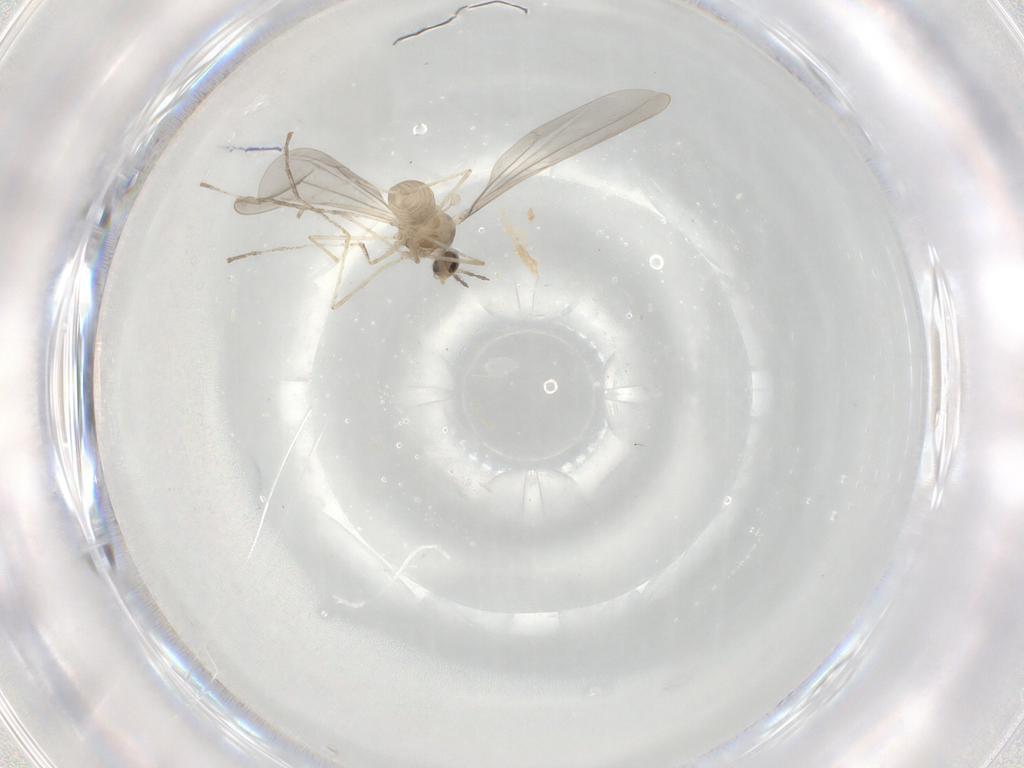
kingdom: Animalia
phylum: Arthropoda
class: Insecta
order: Diptera
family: Cecidomyiidae
